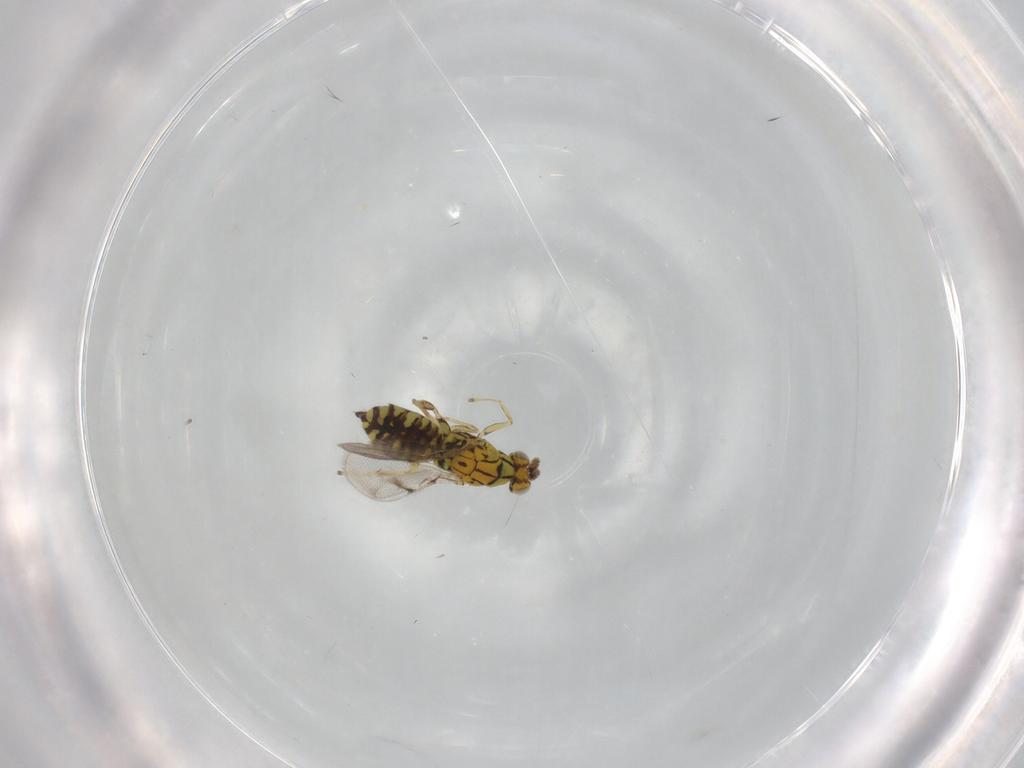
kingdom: Animalia
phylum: Arthropoda
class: Insecta
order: Hymenoptera
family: Eulophidae
